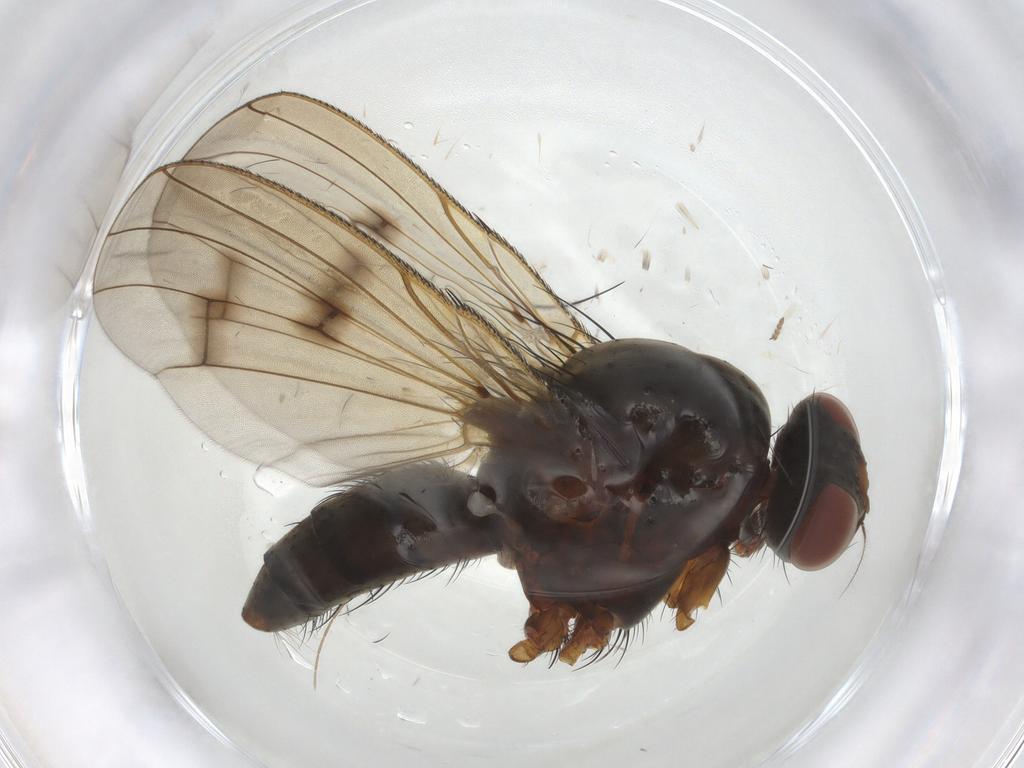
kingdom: Animalia
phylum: Arthropoda
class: Insecta
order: Diptera
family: Anthomyiidae
